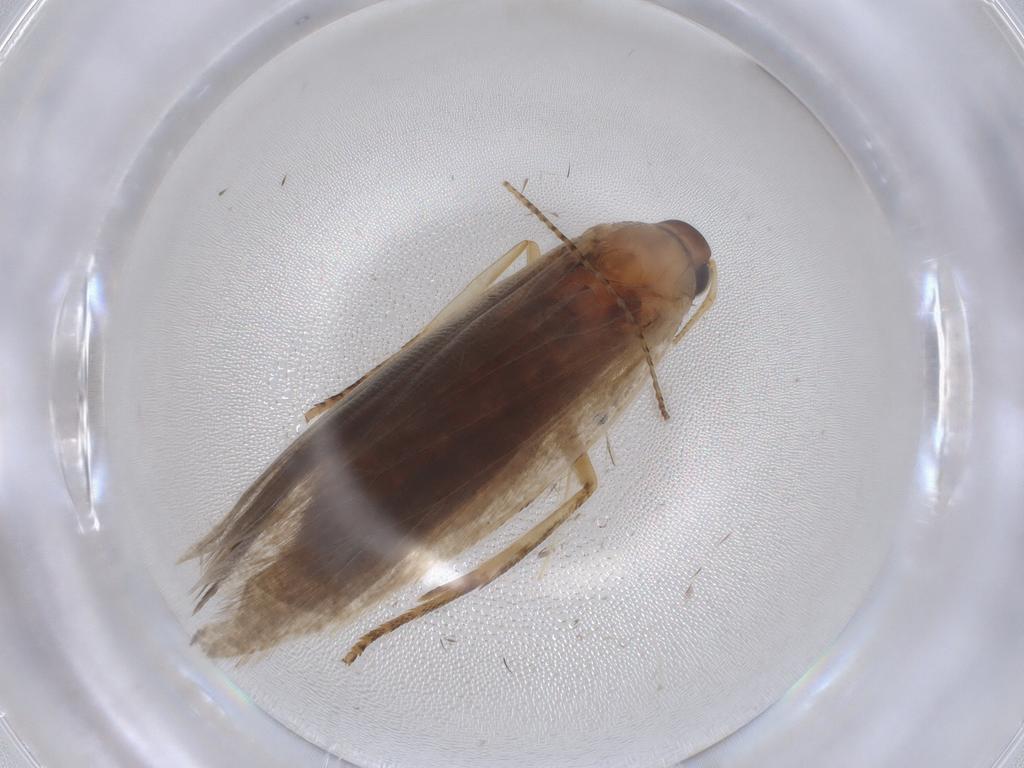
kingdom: Animalia
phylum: Arthropoda
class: Insecta
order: Lepidoptera
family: Gelechiidae
